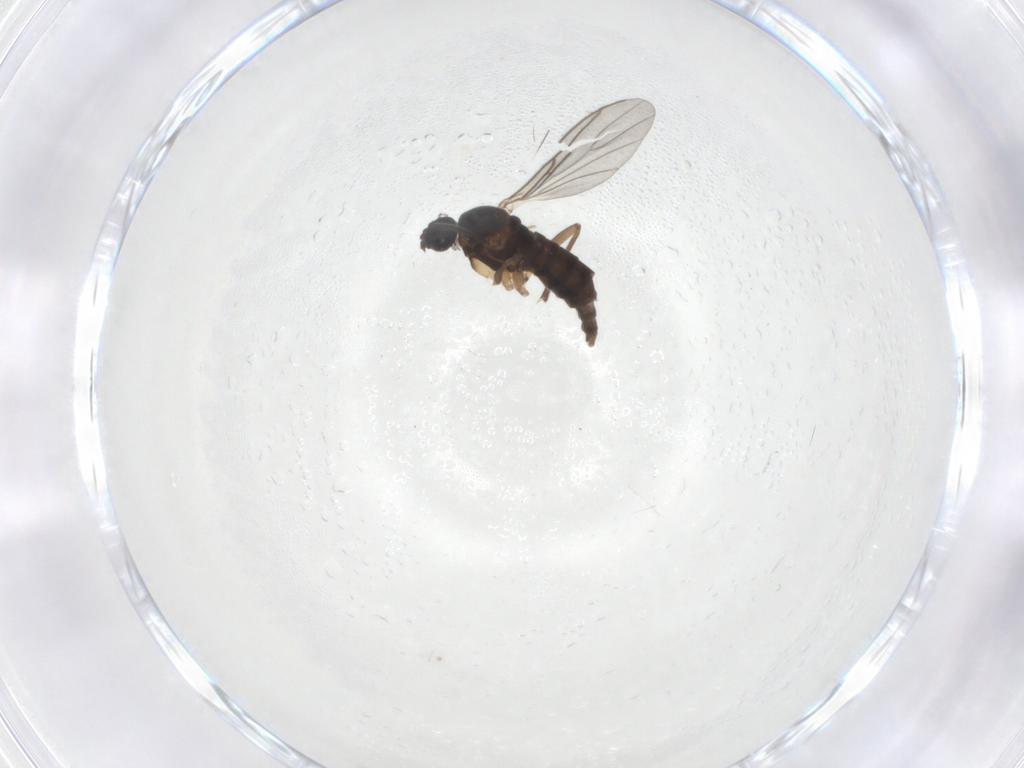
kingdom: Animalia
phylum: Arthropoda
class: Insecta
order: Diptera
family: Sciaridae
